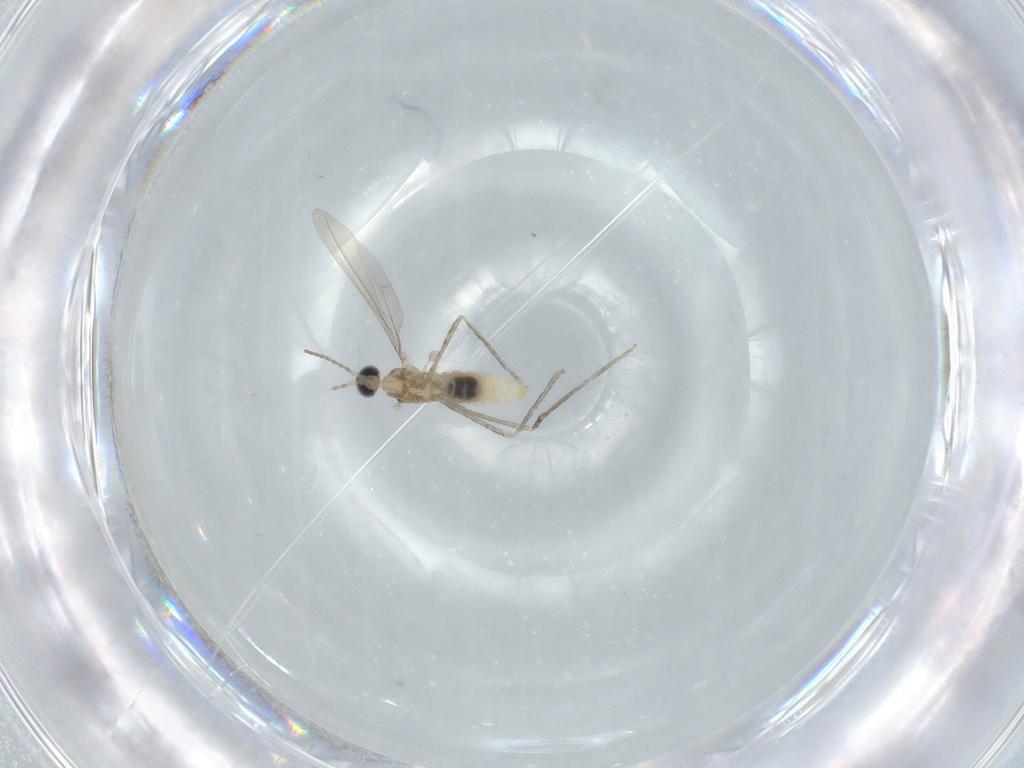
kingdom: Animalia
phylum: Arthropoda
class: Insecta
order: Diptera
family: Cecidomyiidae
